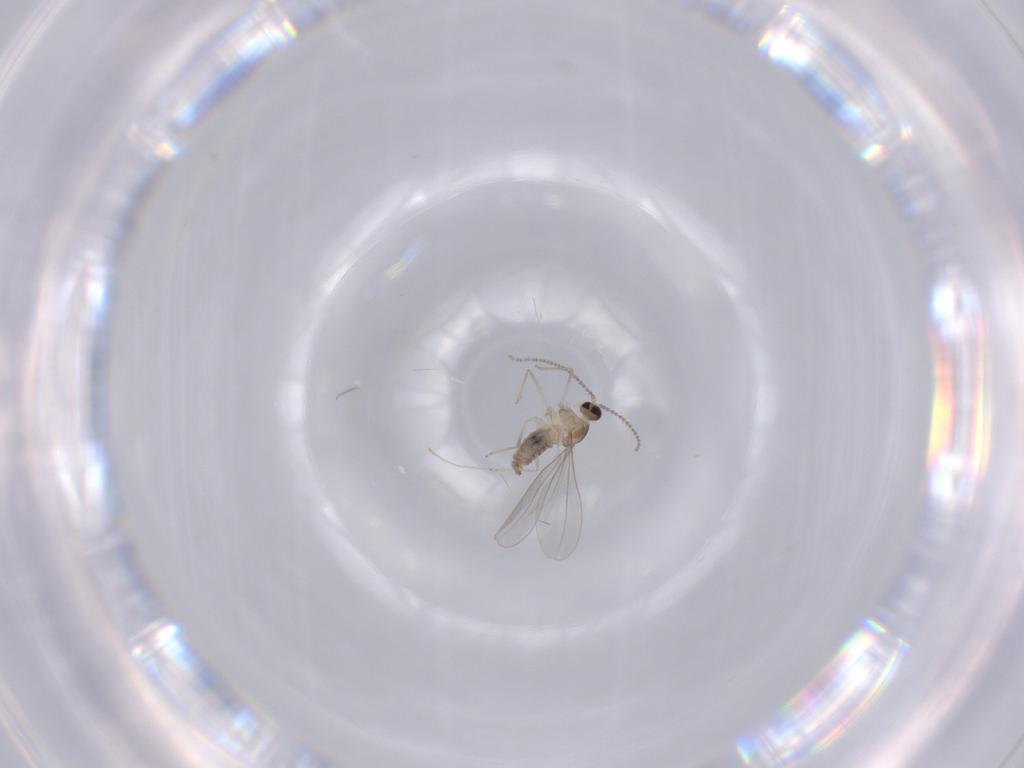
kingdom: Animalia
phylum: Arthropoda
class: Insecta
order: Diptera
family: Cecidomyiidae
